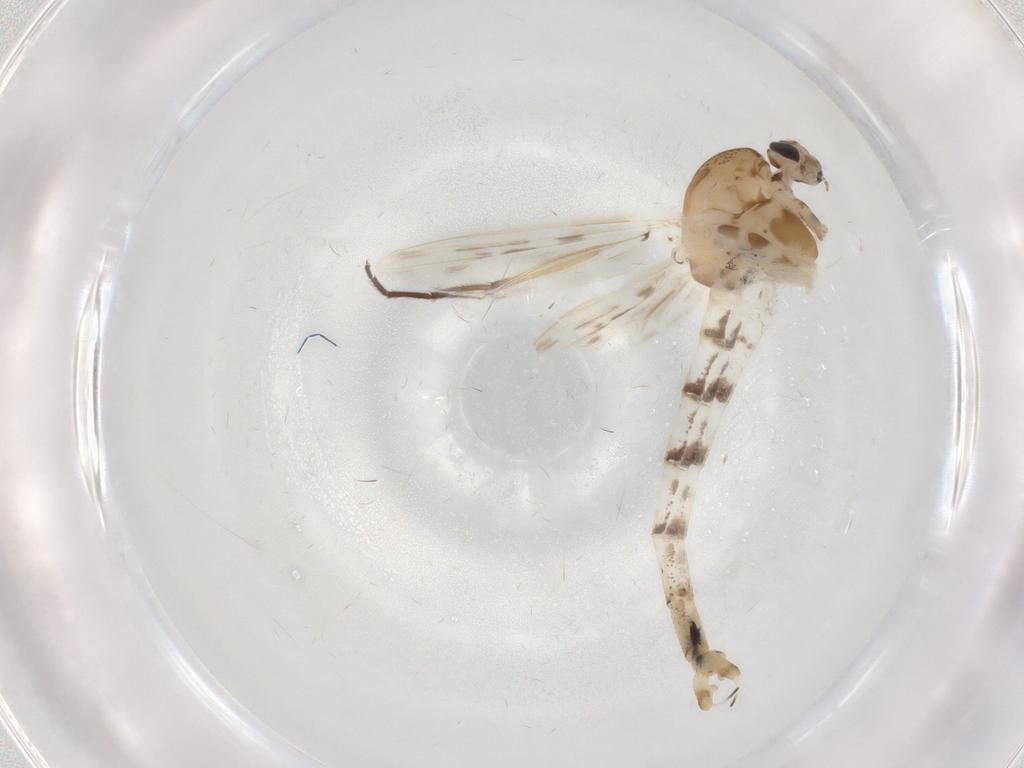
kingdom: Animalia
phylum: Arthropoda
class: Insecta
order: Diptera
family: Chaoboridae
